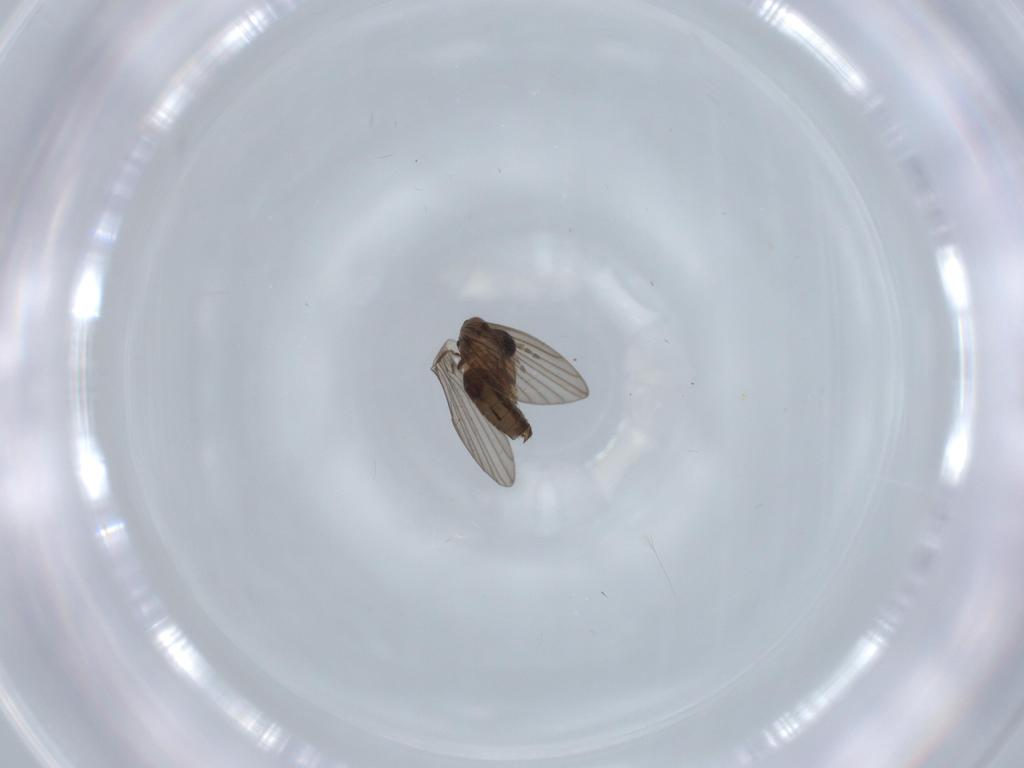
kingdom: Animalia
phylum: Arthropoda
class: Insecta
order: Diptera
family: Psychodidae
